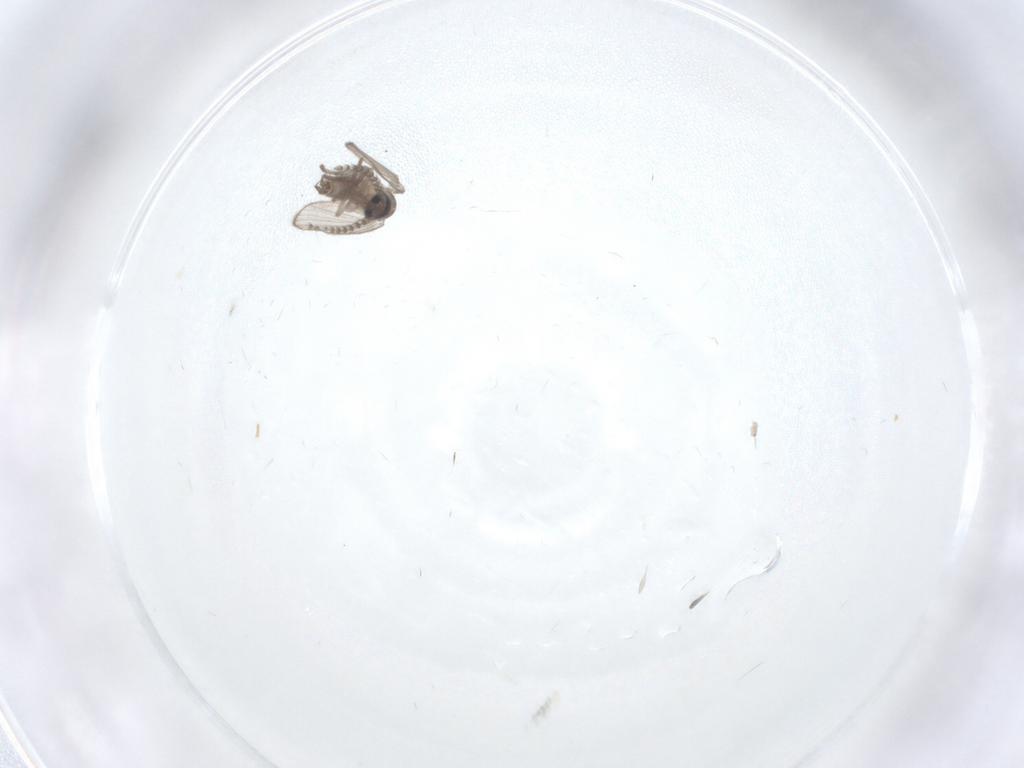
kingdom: Animalia
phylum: Arthropoda
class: Insecta
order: Diptera
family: Psychodidae
